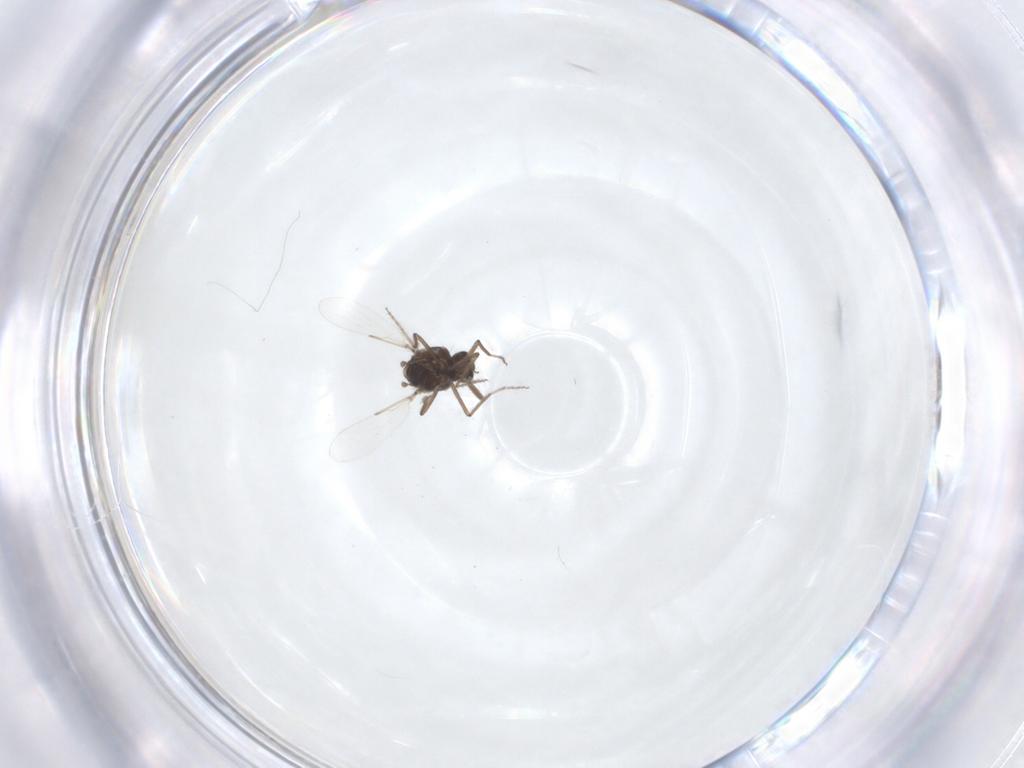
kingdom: Animalia
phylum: Arthropoda
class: Insecta
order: Diptera
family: Ceratopogonidae
